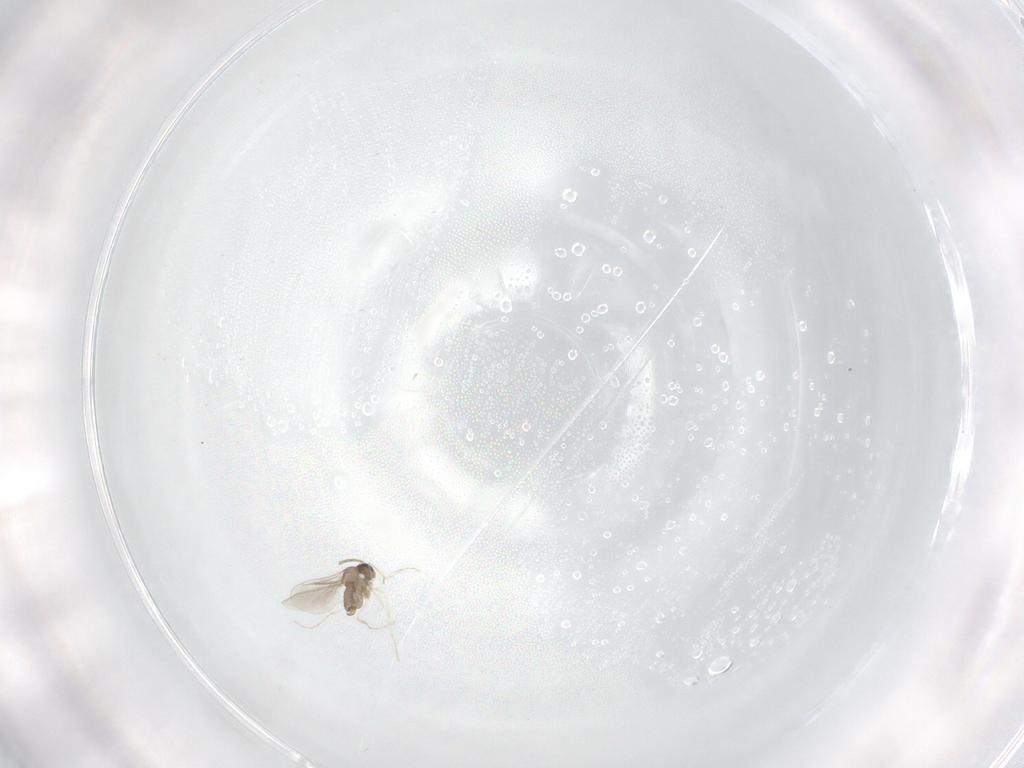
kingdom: Animalia
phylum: Arthropoda
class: Insecta
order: Diptera
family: Cecidomyiidae
